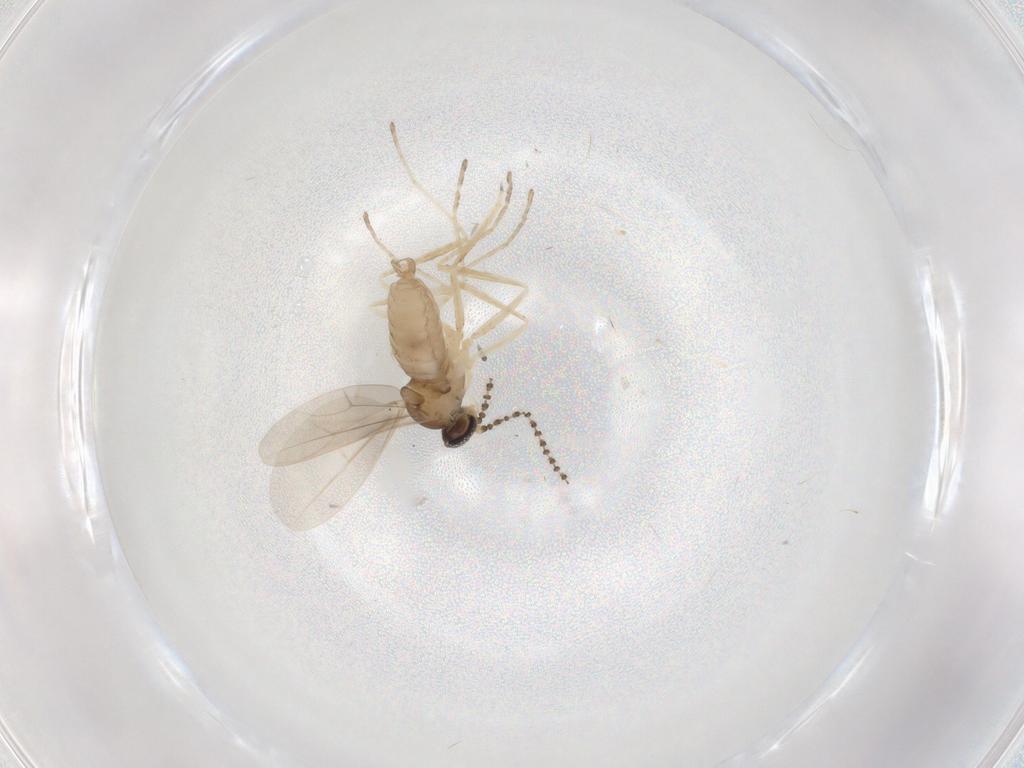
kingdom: Animalia
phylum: Arthropoda
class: Insecta
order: Diptera
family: Ceratopogonidae
